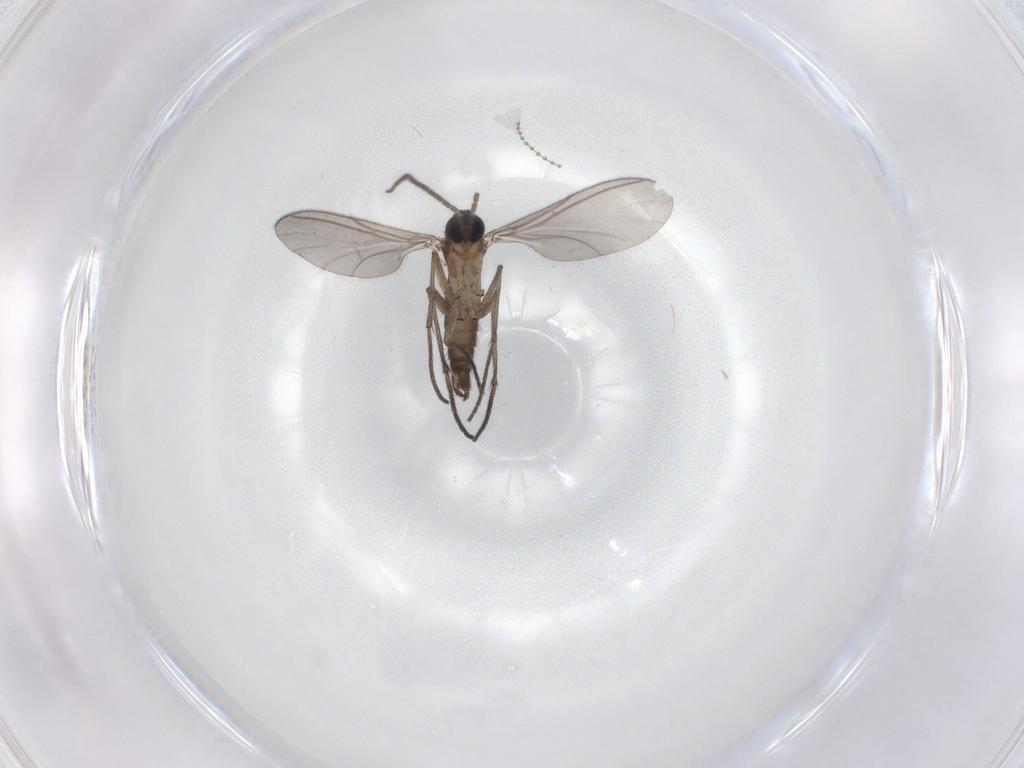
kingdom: Animalia
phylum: Arthropoda
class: Insecta
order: Diptera
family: Sciaridae
